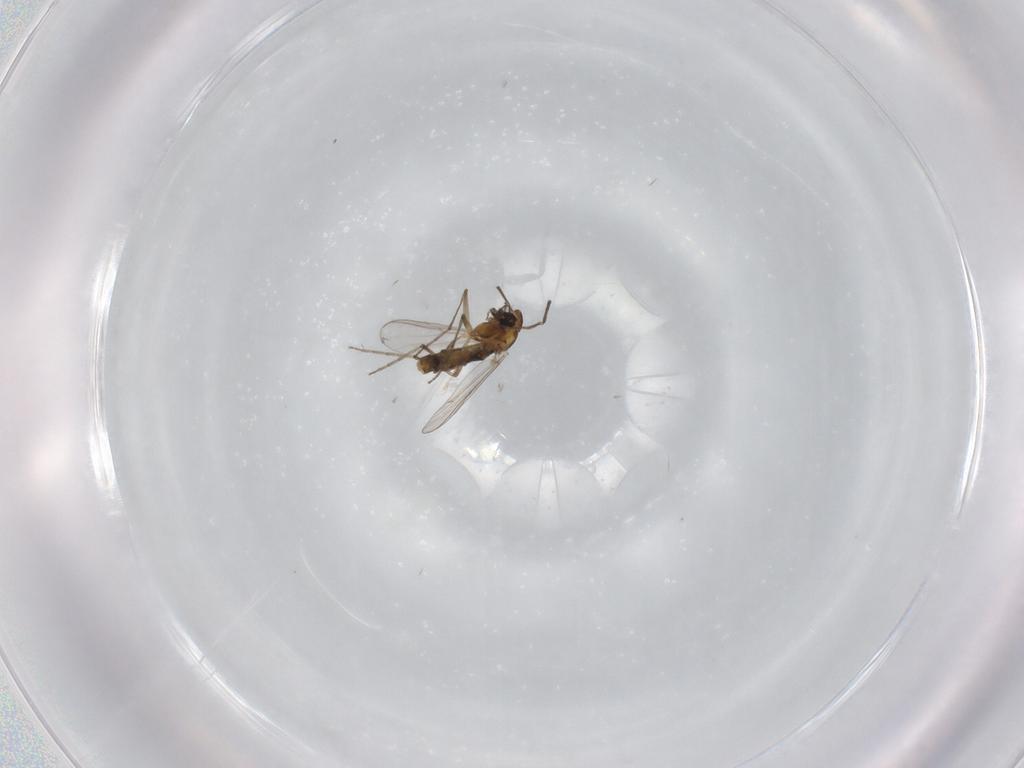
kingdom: Animalia
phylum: Arthropoda
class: Insecta
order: Diptera
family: Chironomidae
